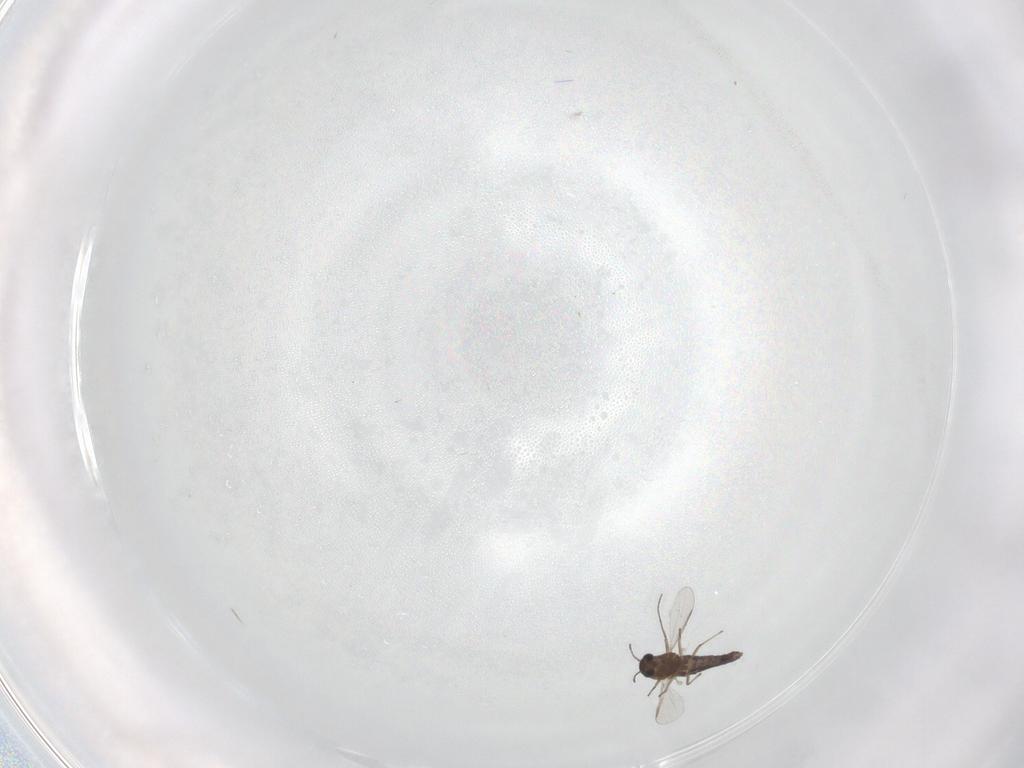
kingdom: Animalia
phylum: Arthropoda
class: Insecta
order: Diptera
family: Chironomidae
